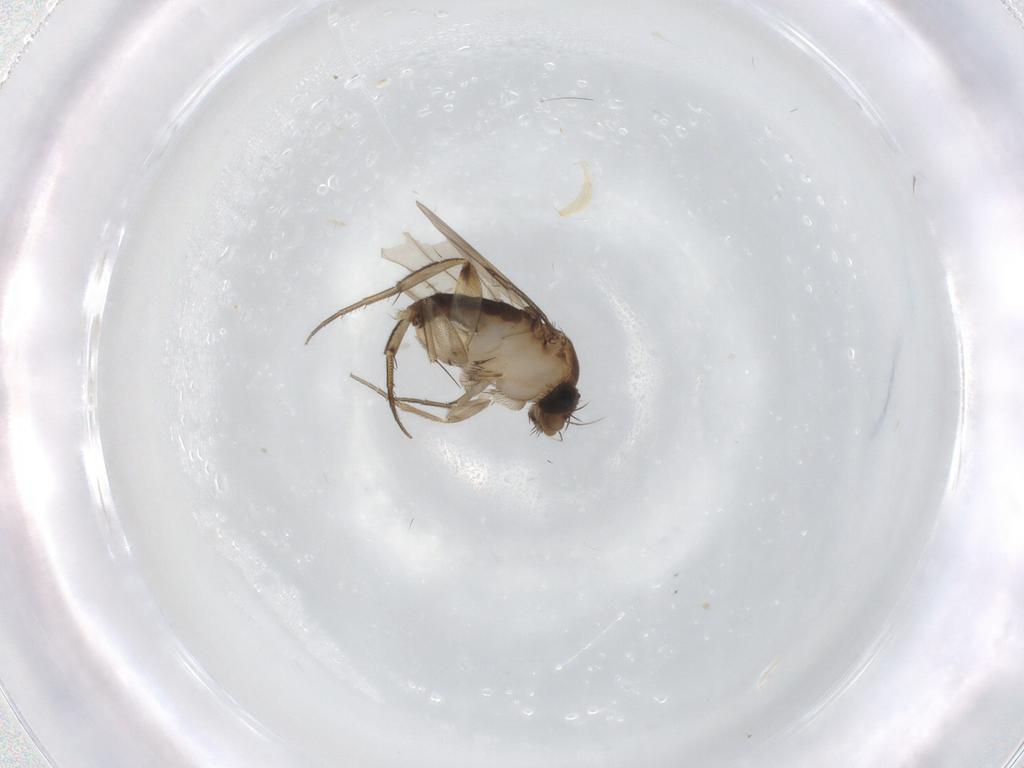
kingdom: Animalia
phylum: Arthropoda
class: Insecta
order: Diptera
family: Phoridae
